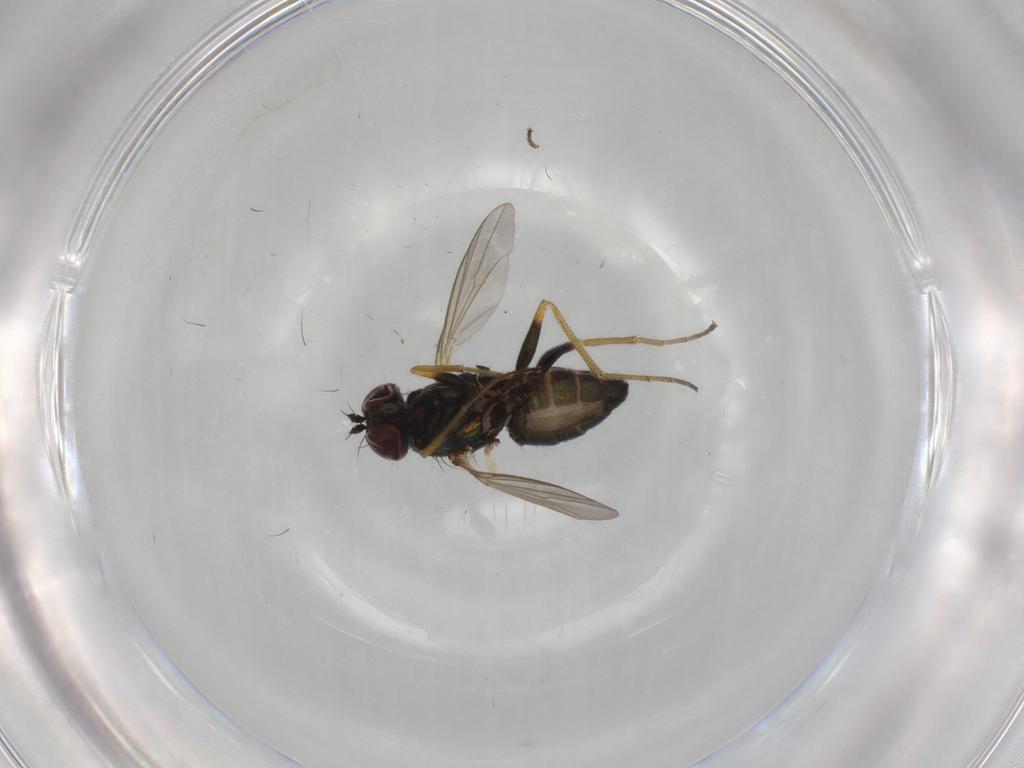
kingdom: Animalia
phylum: Arthropoda
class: Insecta
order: Diptera
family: Dolichopodidae
